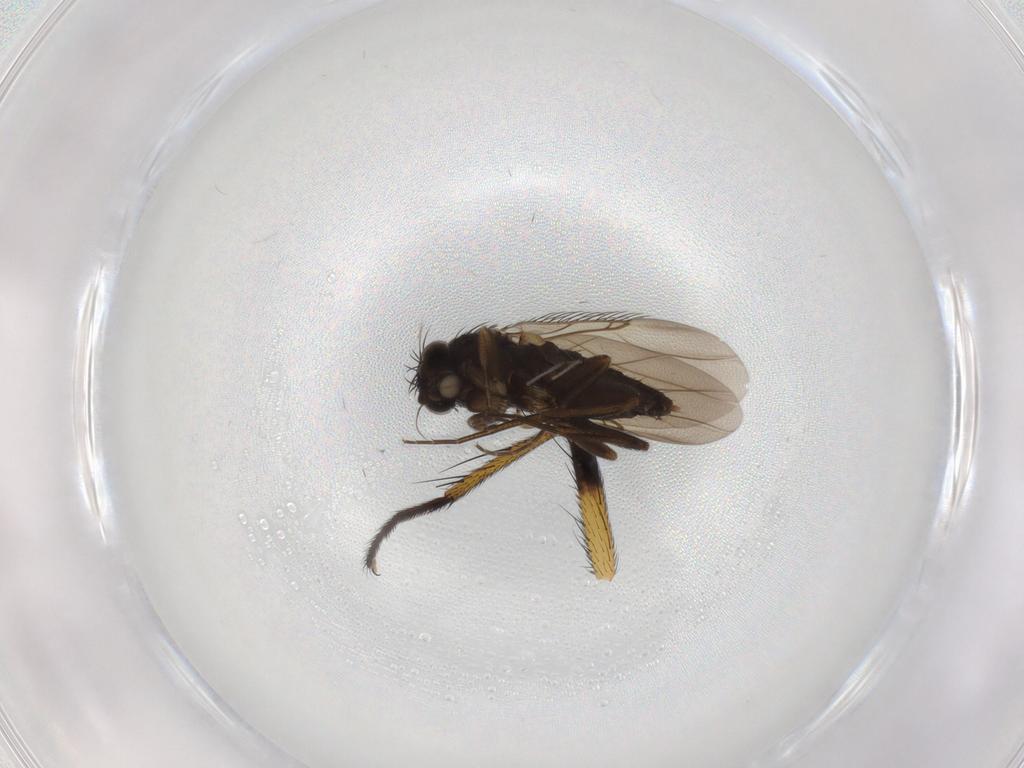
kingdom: Animalia
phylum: Arthropoda
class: Insecta
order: Diptera
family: Phoridae
